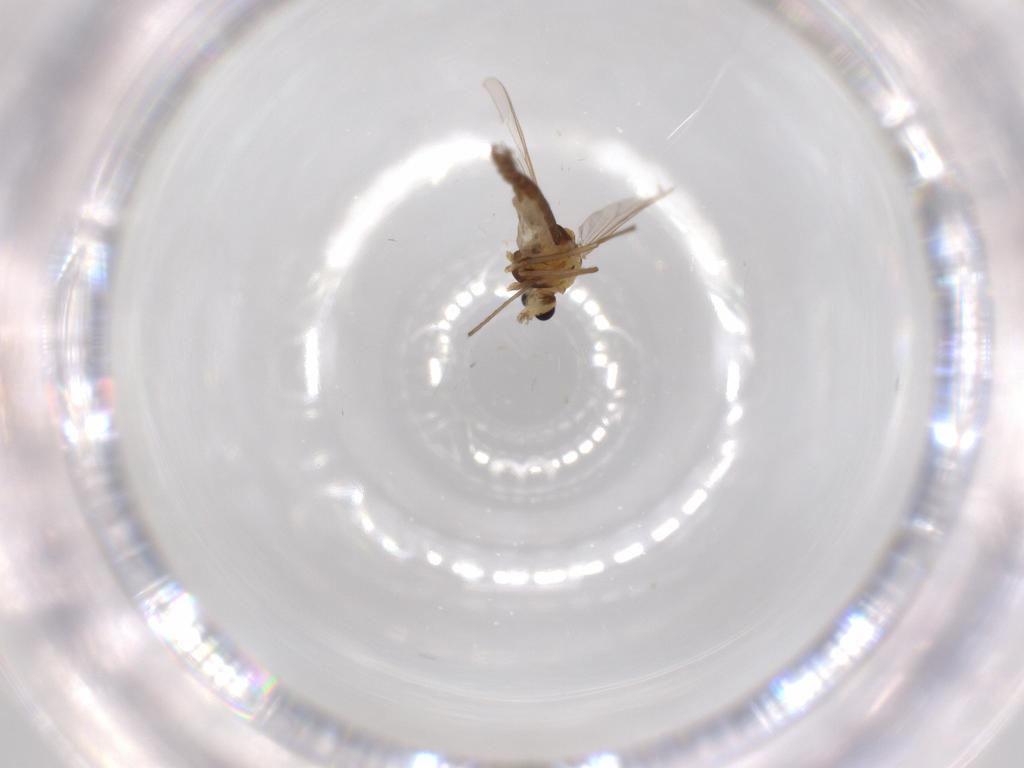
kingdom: Animalia
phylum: Arthropoda
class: Insecta
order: Diptera
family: Chironomidae
